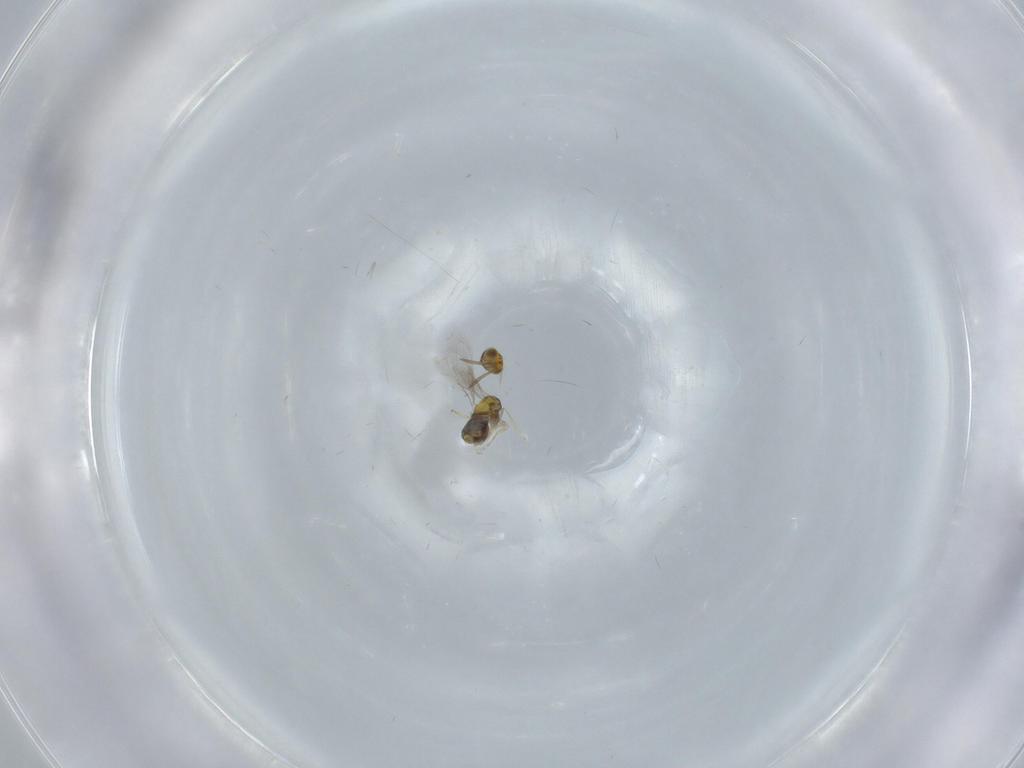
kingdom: Animalia
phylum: Arthropoda
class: Insecta
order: Hymenoptera
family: Aphelinidae
